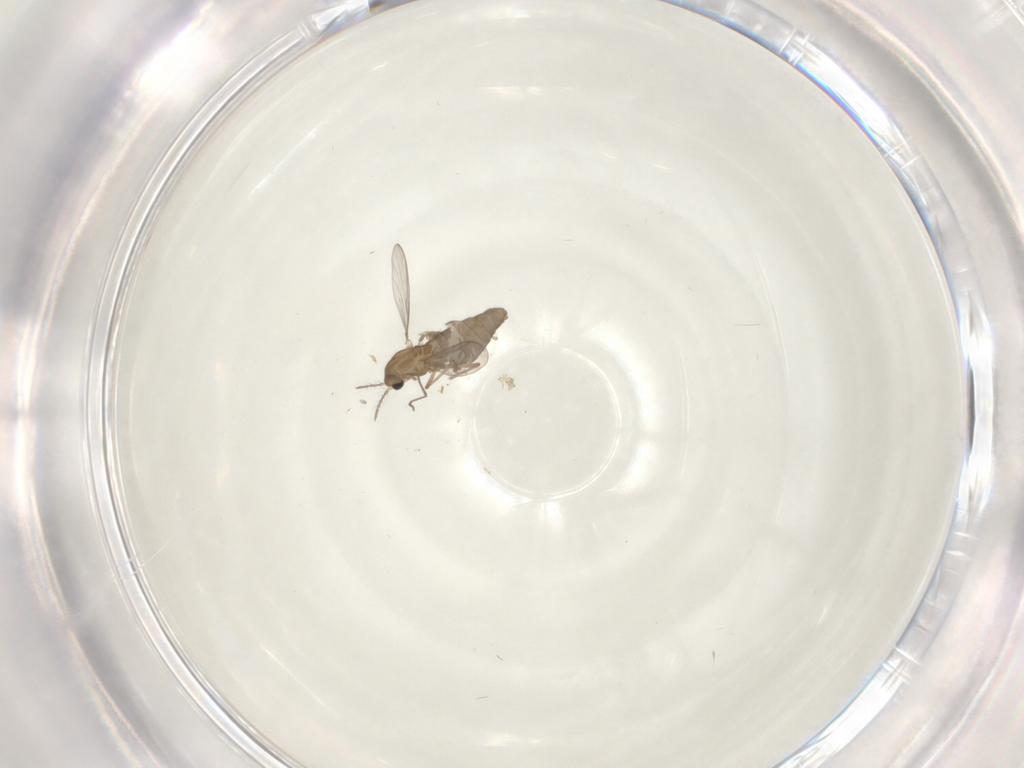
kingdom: Animalia
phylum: Arthropoda
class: Insecta
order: Diptera
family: Chironomidae
